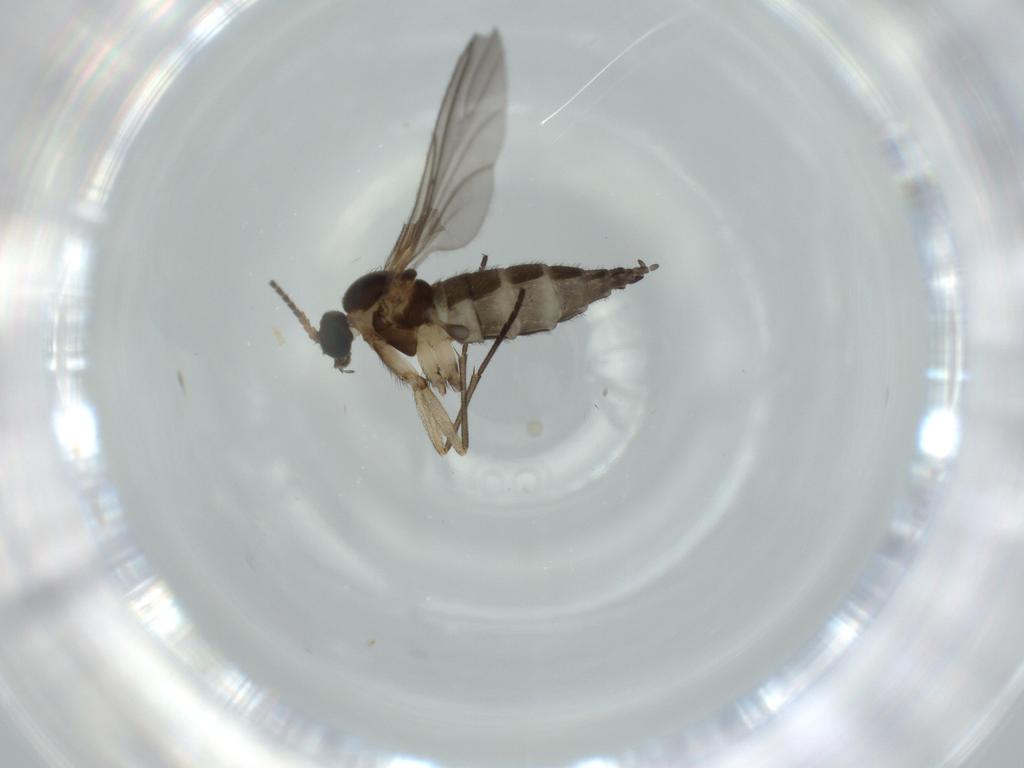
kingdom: Animalia
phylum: Arthropoda
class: Insecta
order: Diptera
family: Sciaridae
